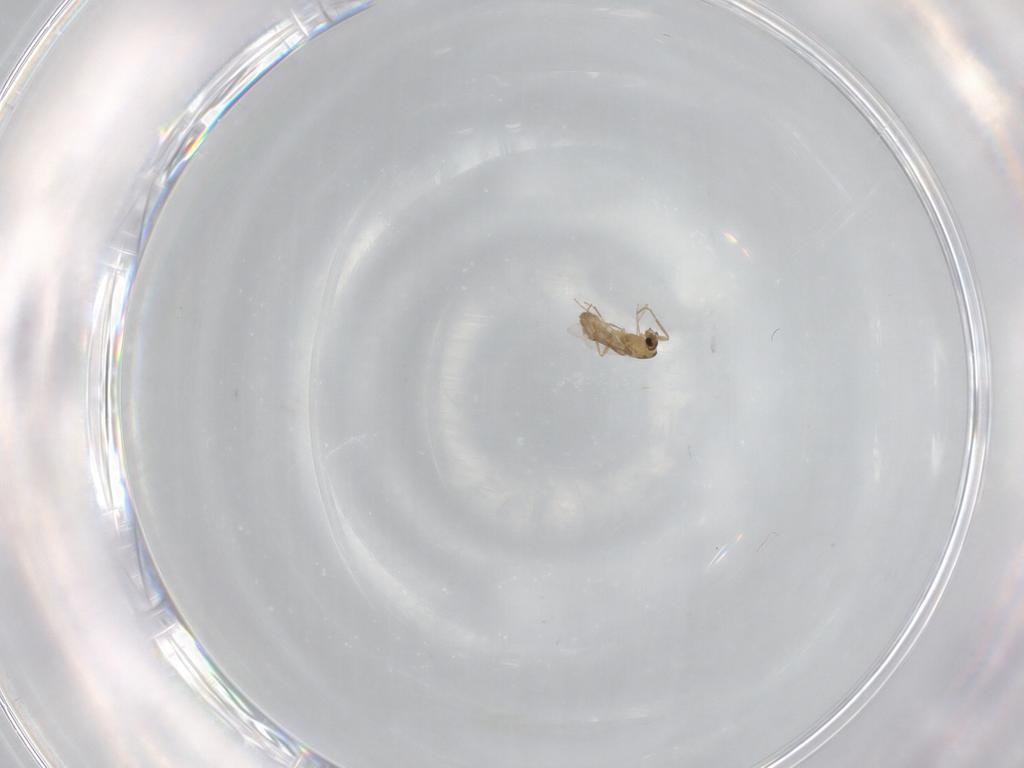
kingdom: Animalia
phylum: Arthropoda
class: Insecta
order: Diptera
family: Chironomidae
